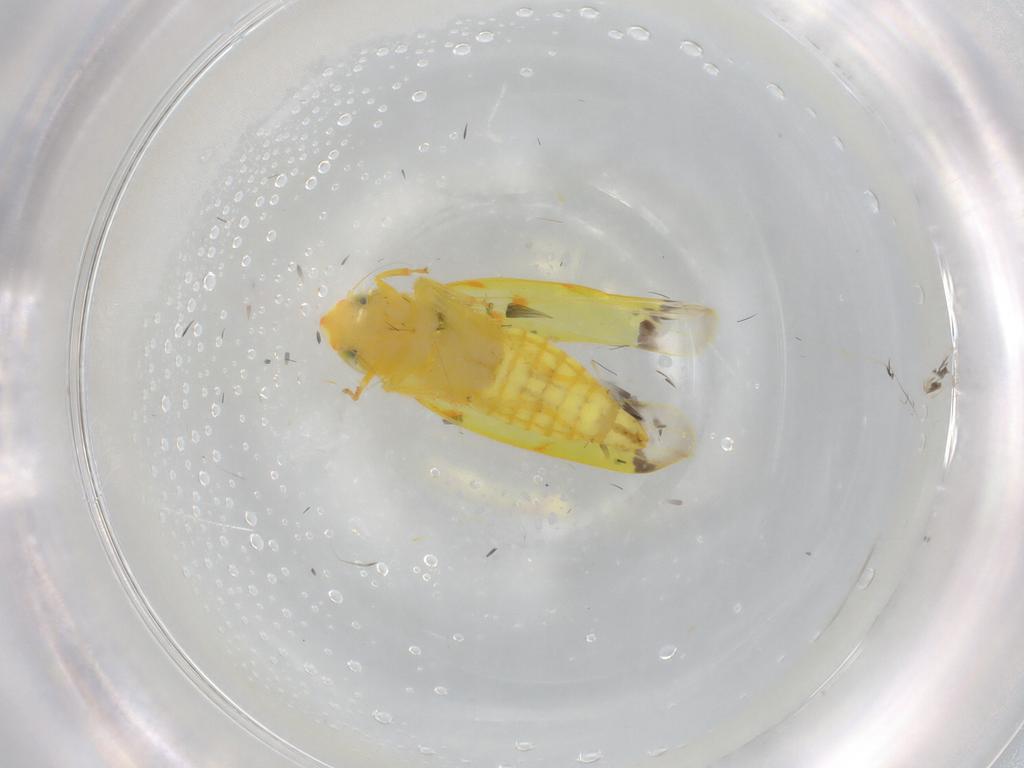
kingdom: Animalia
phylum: Arthropoda
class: Insecta
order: Hemiptera
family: Cicadellidae
